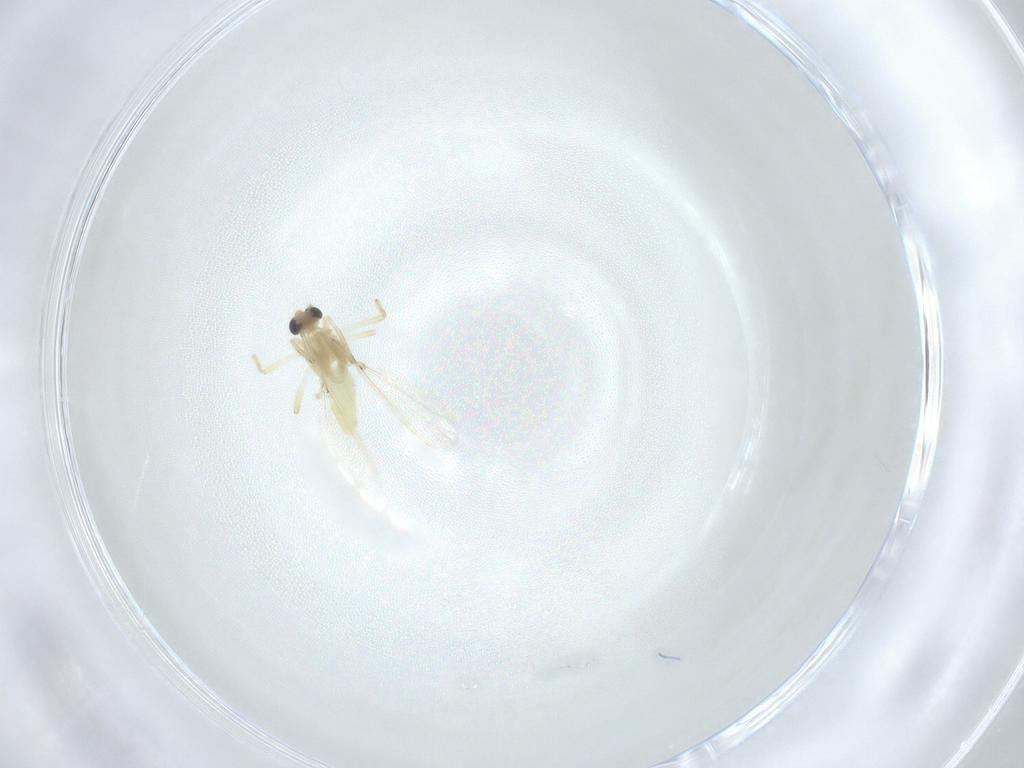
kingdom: Animalia
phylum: Arthropoda
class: Insecta
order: Diptera
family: Chironomidae
